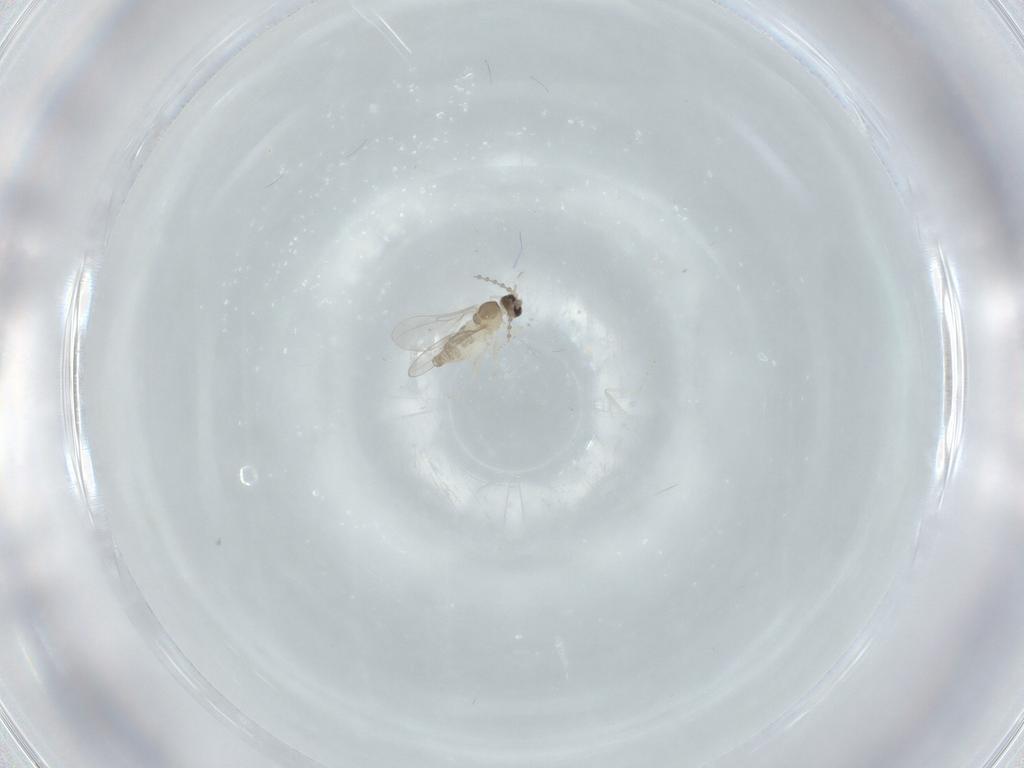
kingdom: Animalia
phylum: Arthropoda
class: Insecta
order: Diptera
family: Cecidomyiidae
